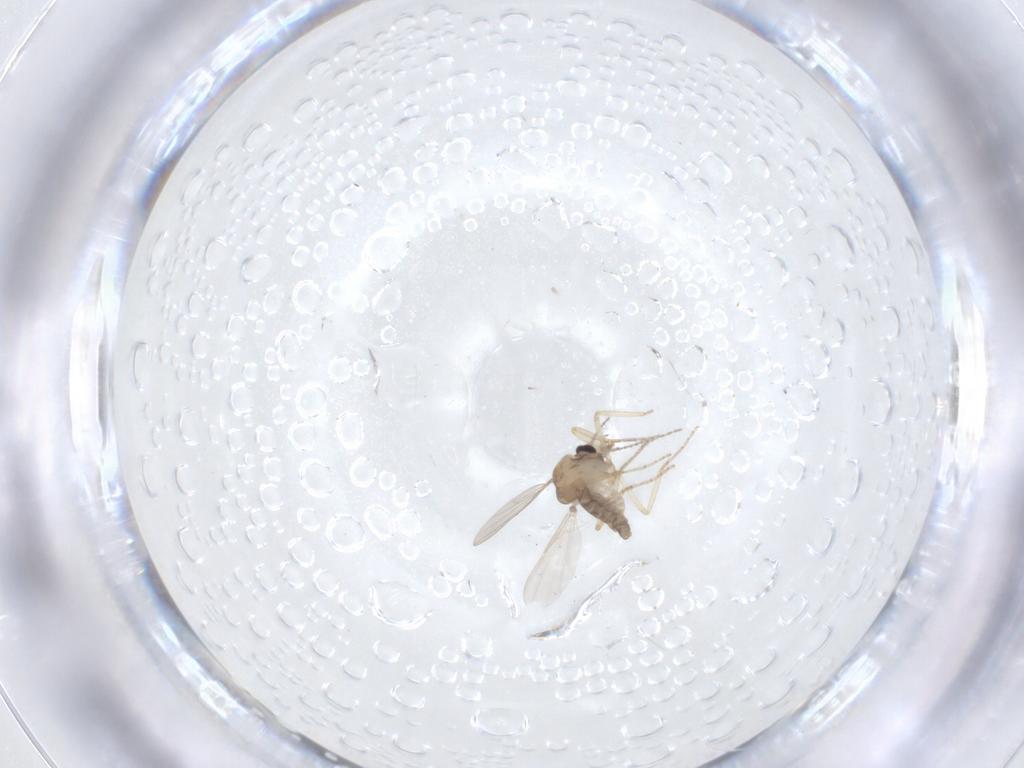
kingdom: Animalia
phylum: Arthropoda
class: Insecta
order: Diptera
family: Ceratopogonidae
